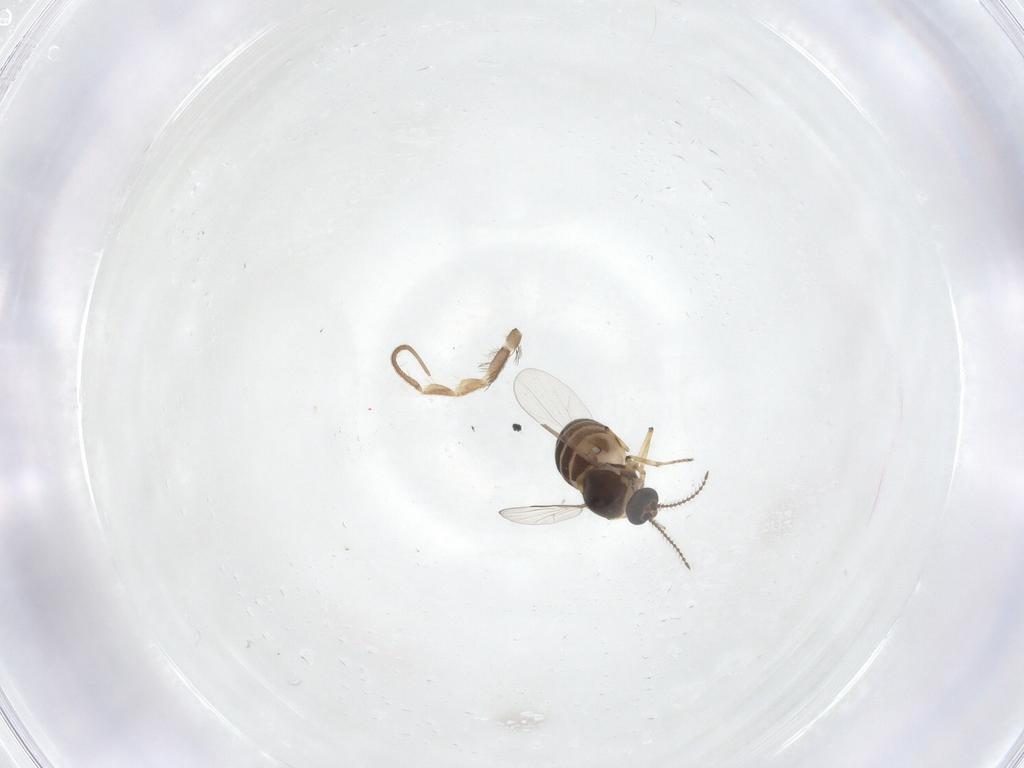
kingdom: Animalia
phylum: Arthropoda
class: Insecta
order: Diptera
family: Ceratopogonidae
